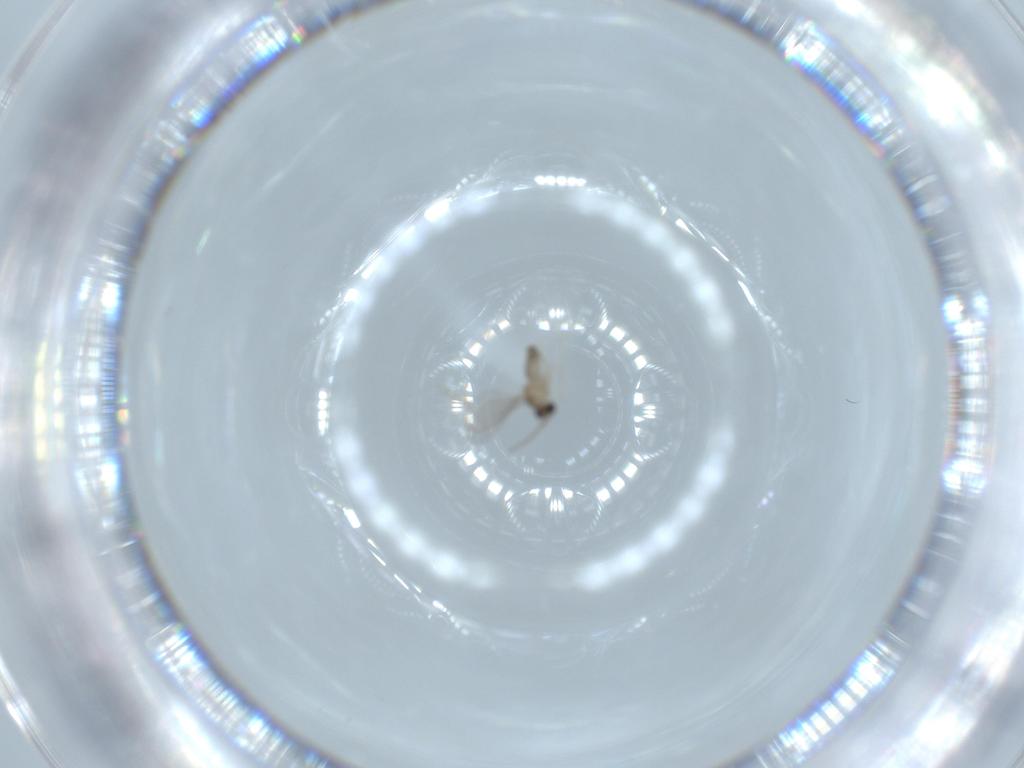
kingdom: Animalia
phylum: Arthropoda
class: Insecta
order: Diptera
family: Cecidomyiidae
